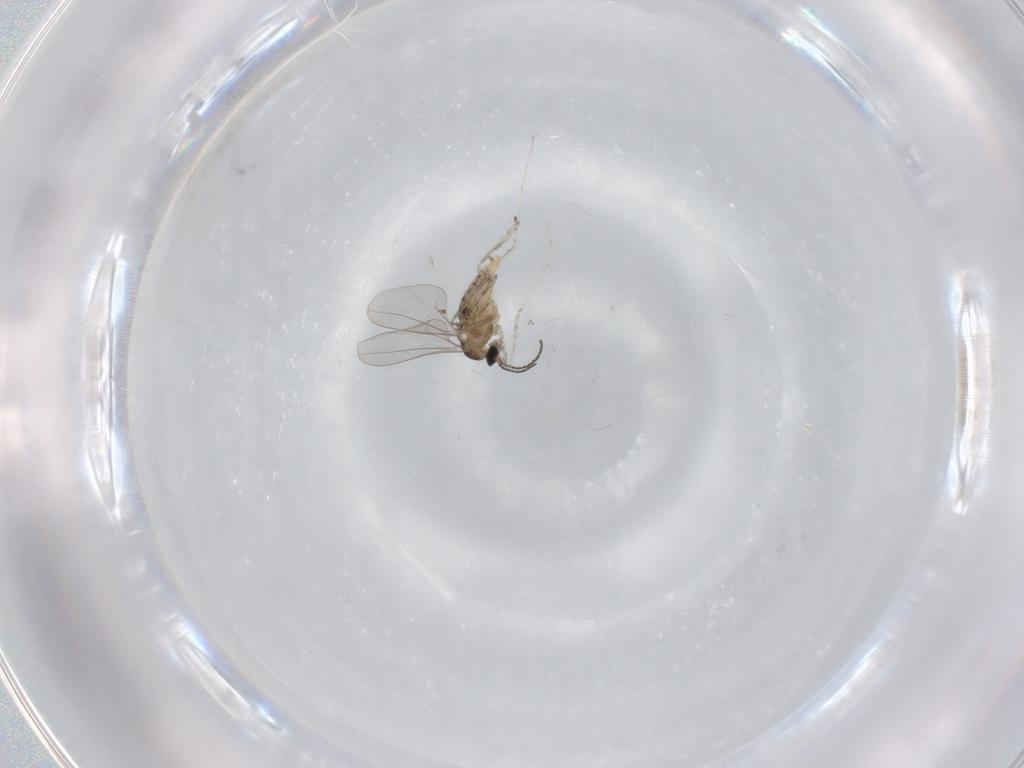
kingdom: Animalia
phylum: Arthropoda
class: Insecta
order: Diptera
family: Cecidomyiidae
